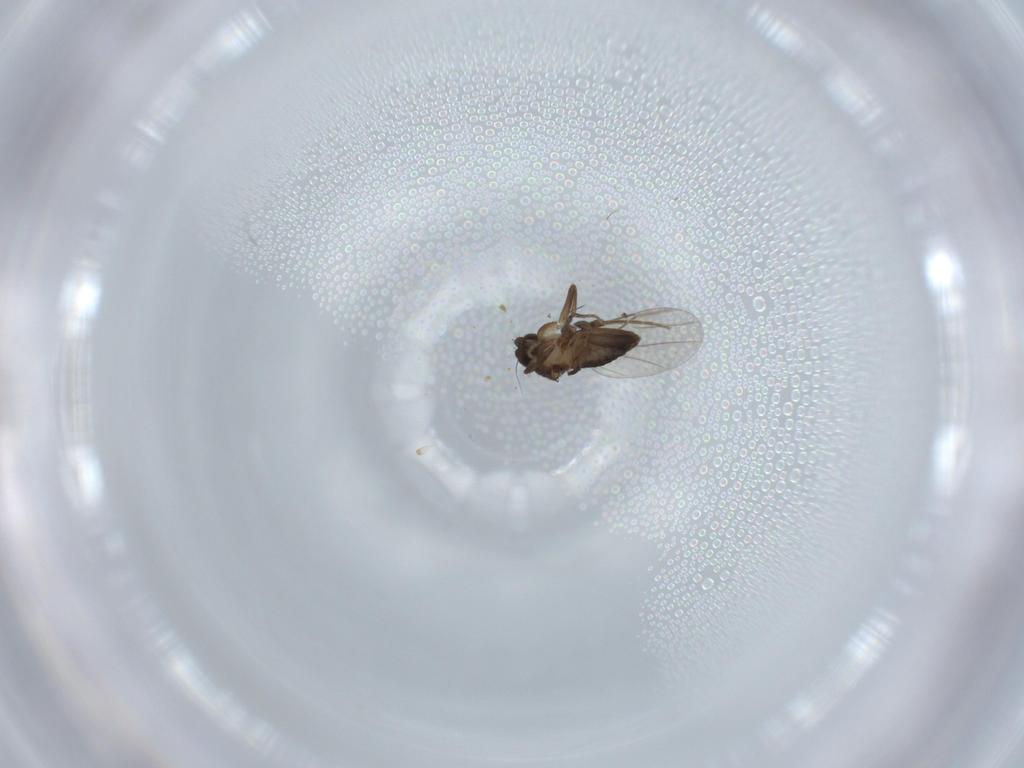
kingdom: Animalia
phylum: Arthropoda
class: Insecta
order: Diptera
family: Phoridae
